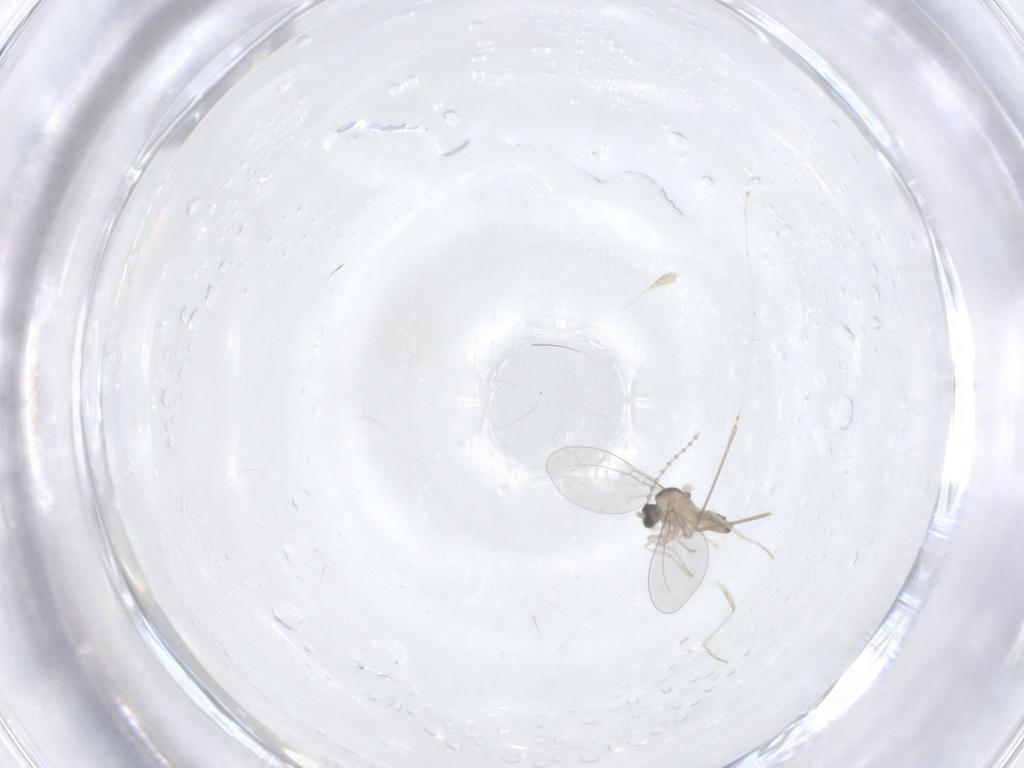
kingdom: Animalia
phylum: Arthropoda
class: Insecta
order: Diptera
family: Cecidomyiidae
